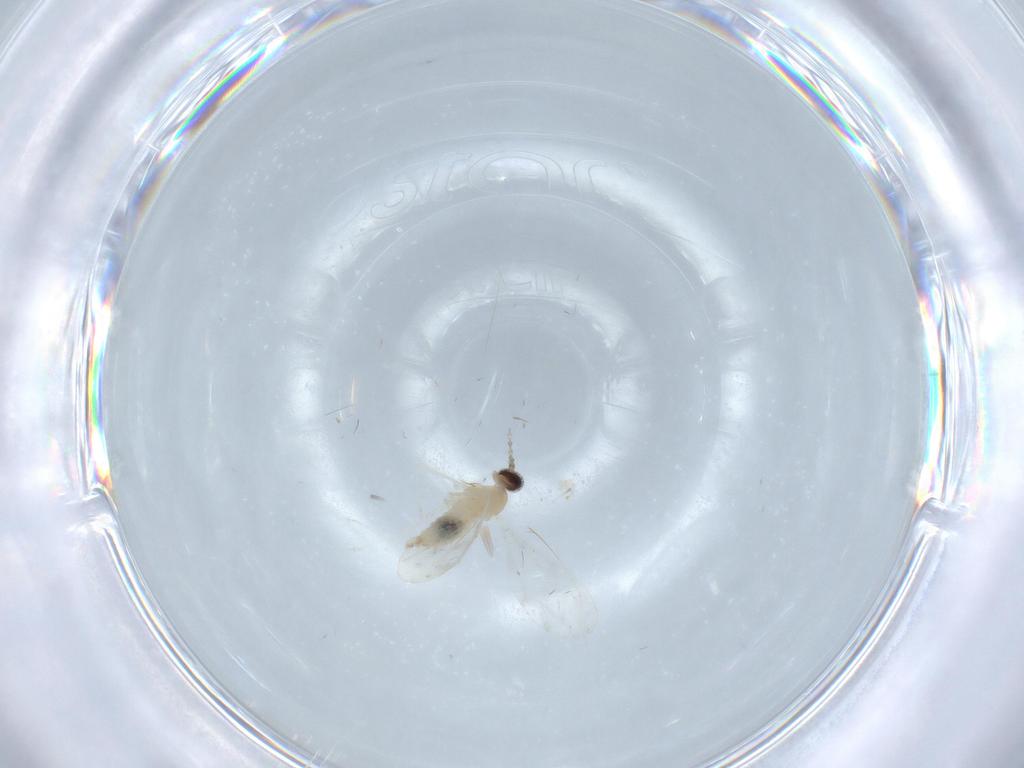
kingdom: Animalia
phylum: Arthropoda
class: Insecta
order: Diptera
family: Cecidomyiidae
